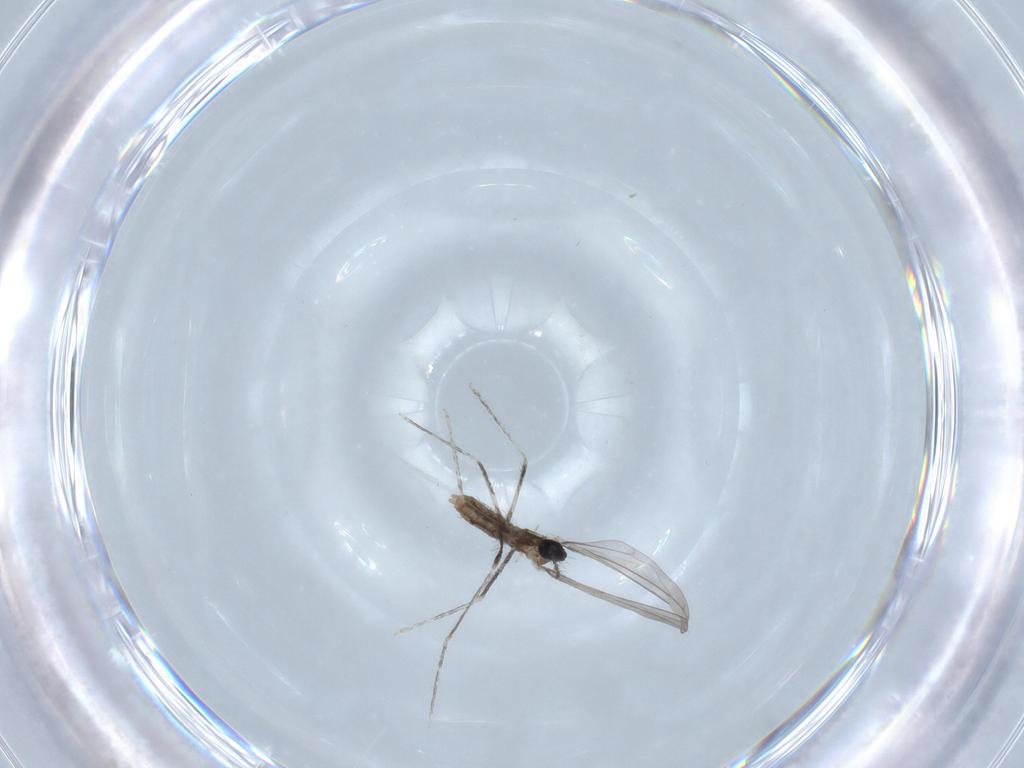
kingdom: Animalia
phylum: Arthropoda
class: Insecta
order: Diptera
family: Cecidomyiidae
